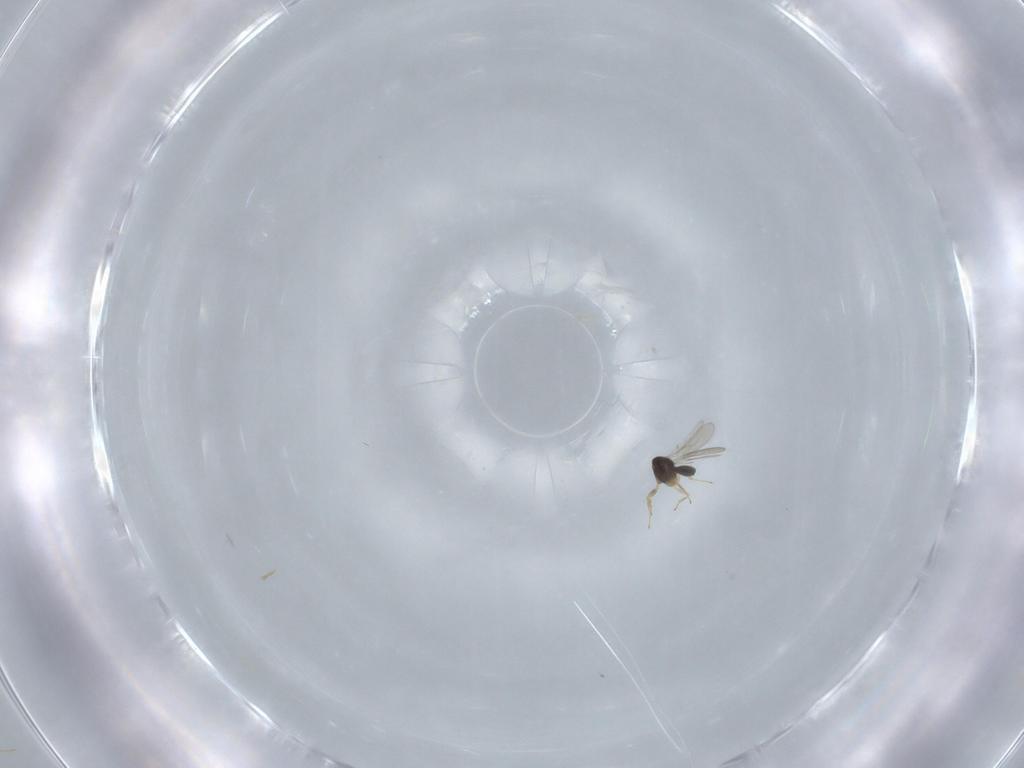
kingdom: Animalia
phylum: Arthropoda
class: Insecta
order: Hymenoptera
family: Scelionidae
